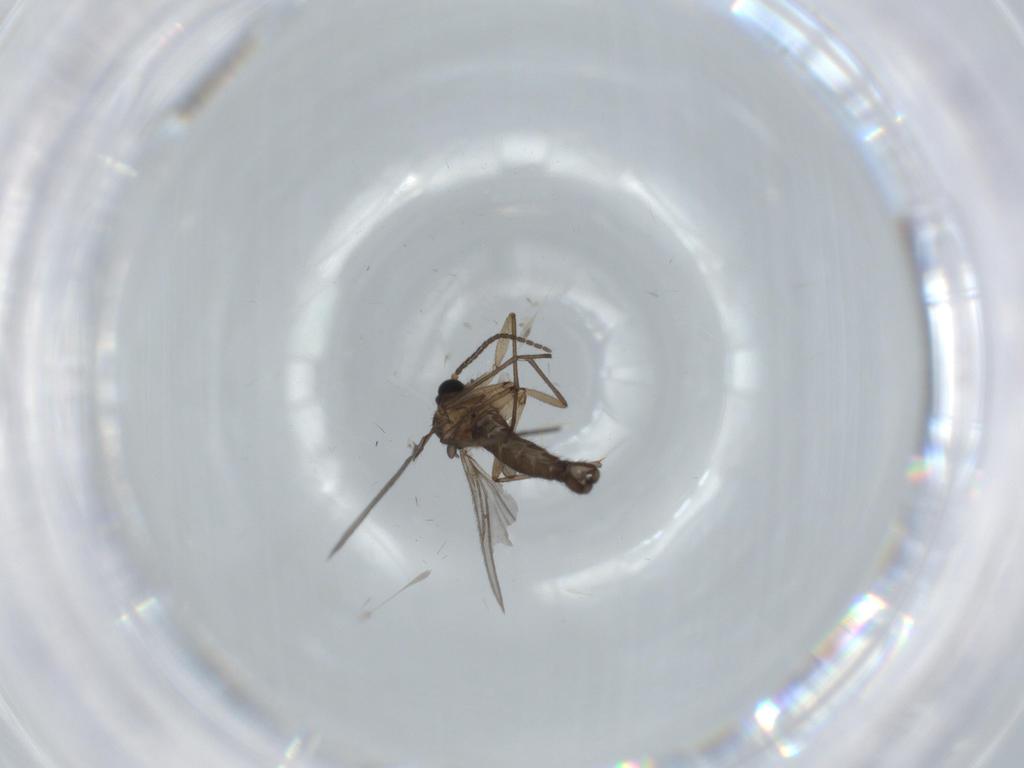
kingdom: Animalia
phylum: Arthropoda
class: Insecta
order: Diptera
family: Sciaridae
